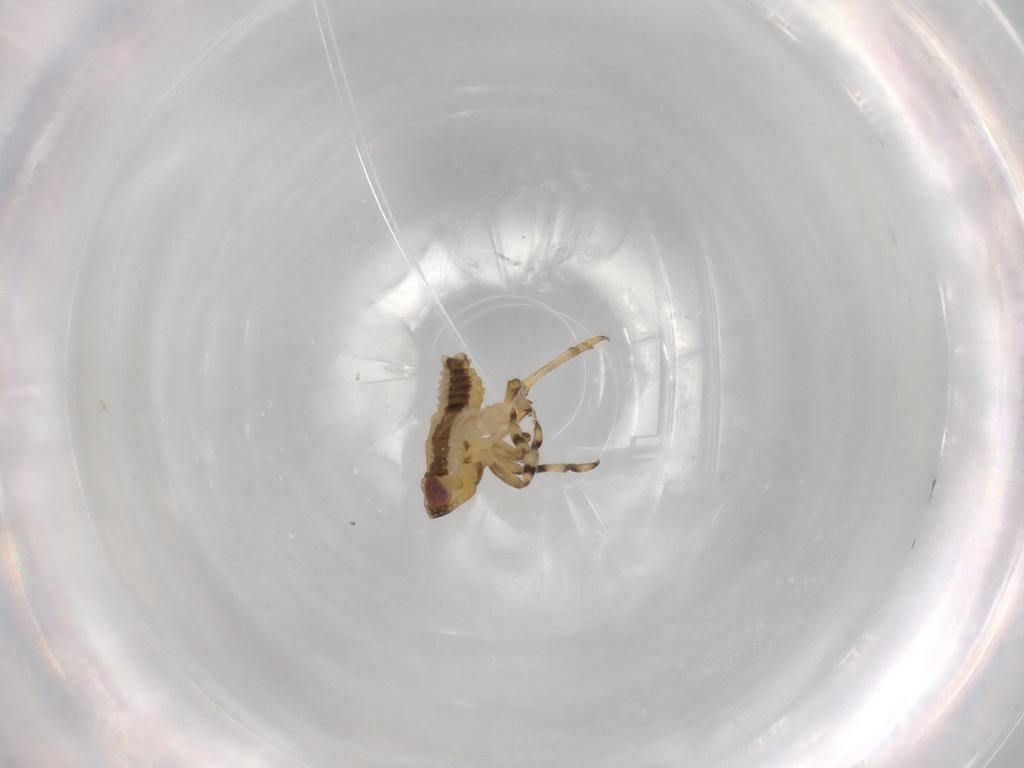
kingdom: Animalia
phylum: Arthropoda
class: Insecta
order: Hemiptera
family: Issidae
